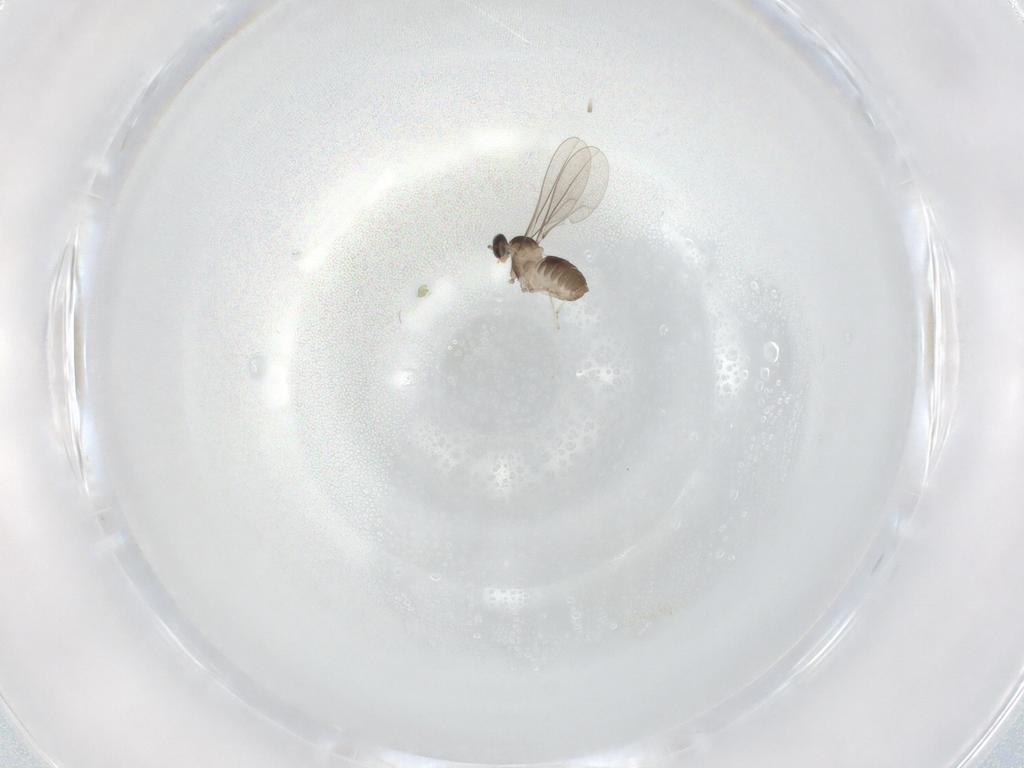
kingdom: Animalia
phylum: Arthropoda
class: Insecta
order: Diptera
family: Drosophilidae
